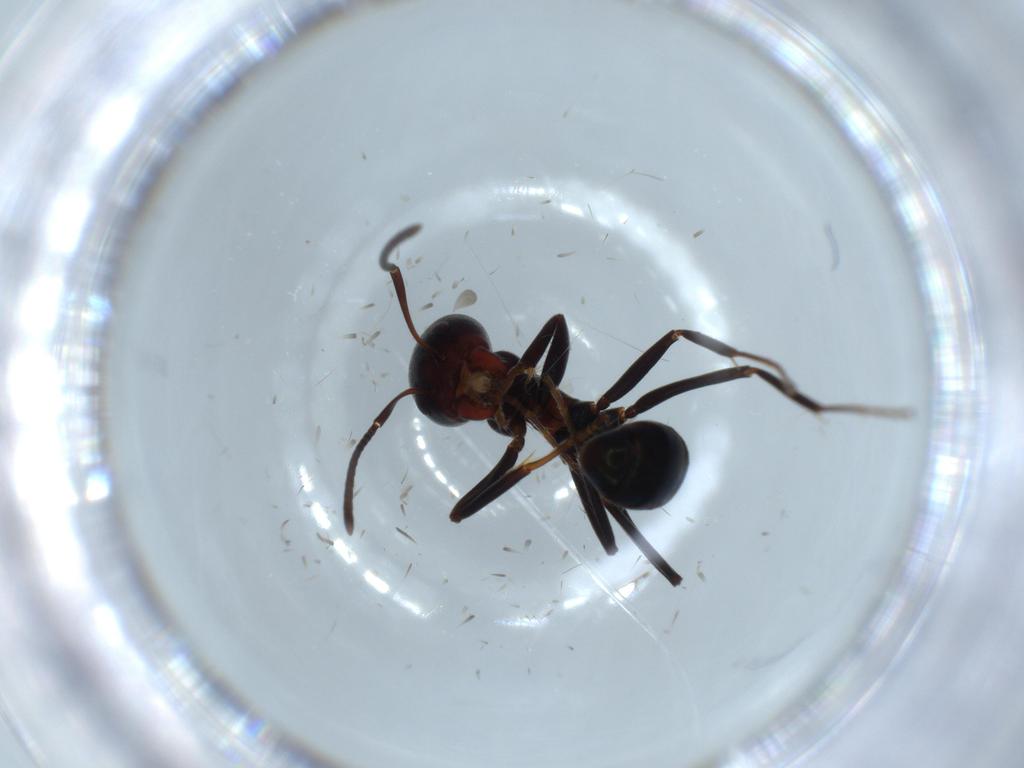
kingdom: Animalia
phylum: Arthropoda
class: Insecta
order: Hymenoptera
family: Formicidae
